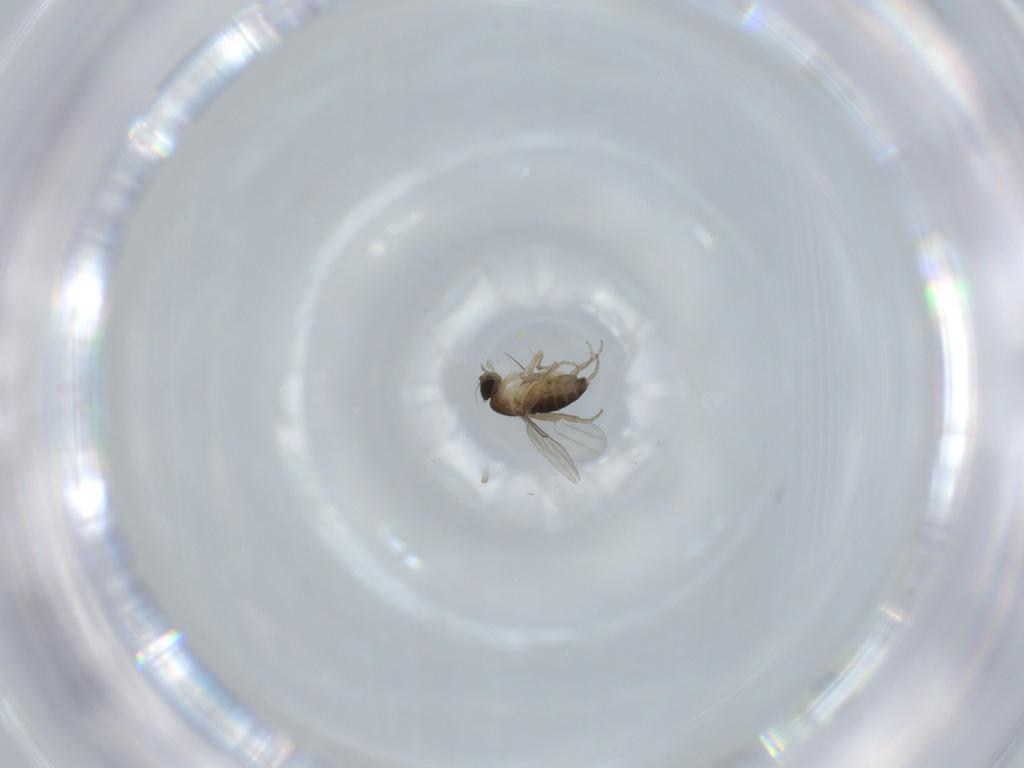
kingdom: Animalia
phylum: Arthropoda
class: Insecta
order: Diptera
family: Phoridae
